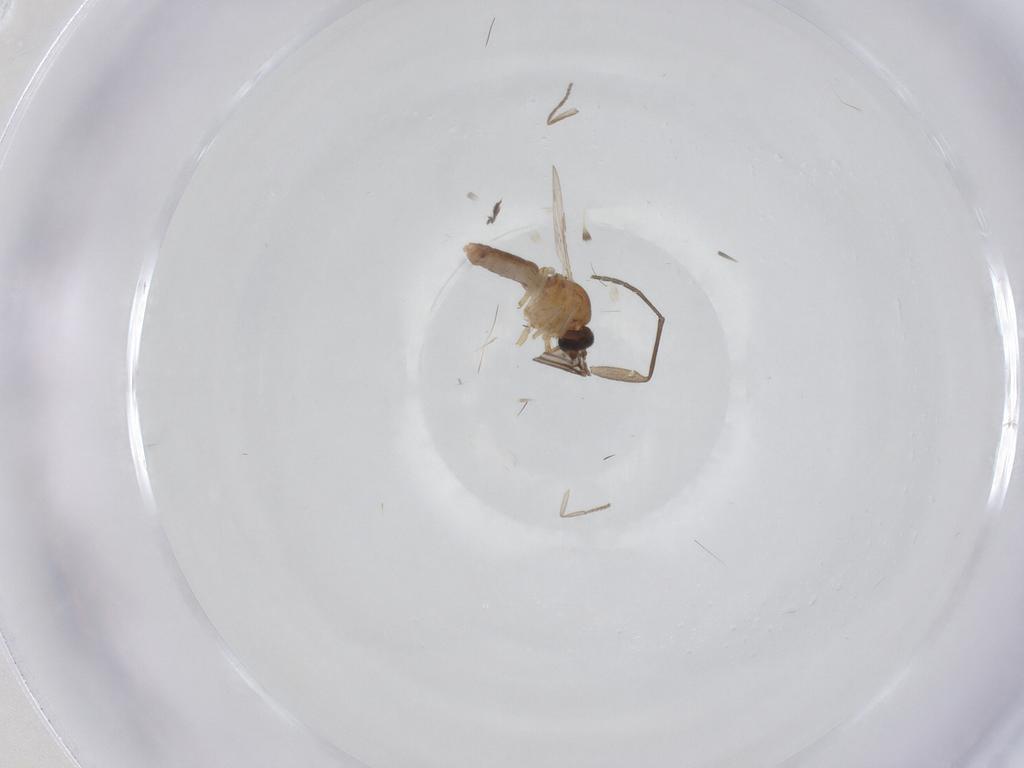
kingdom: Animalia
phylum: Arthropoda
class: Insecta
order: Diptera
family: Ceratopogonidae
